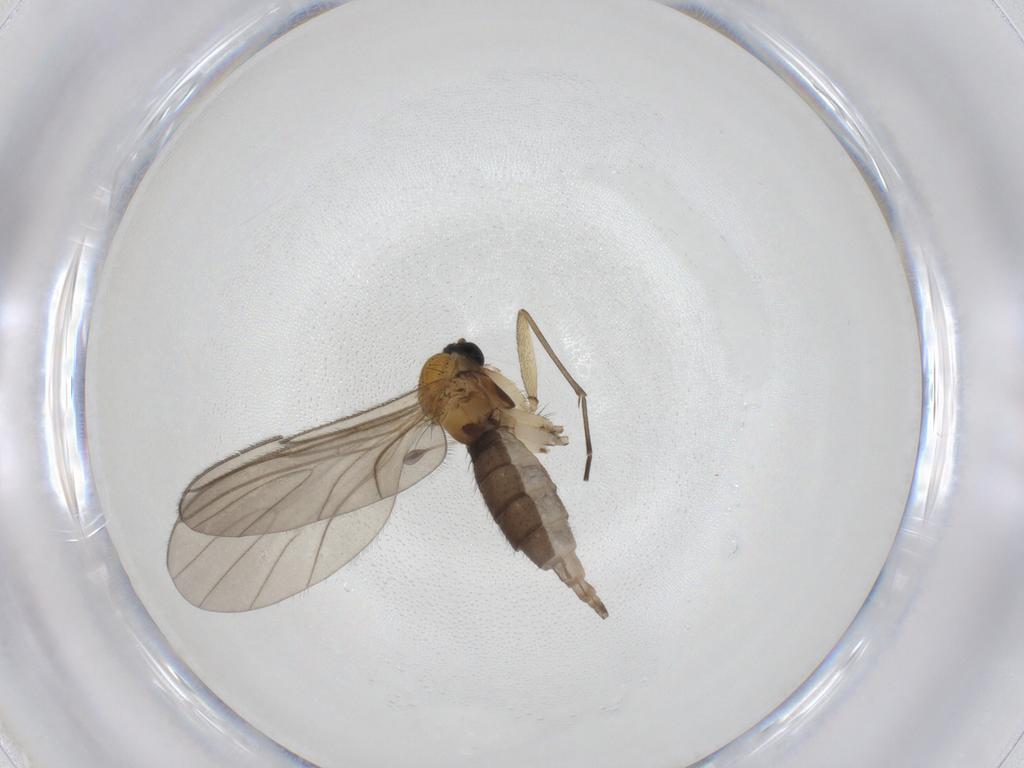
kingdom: Animalia
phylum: Arthropoda
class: Insecta
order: Diptera
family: Sciaridae
